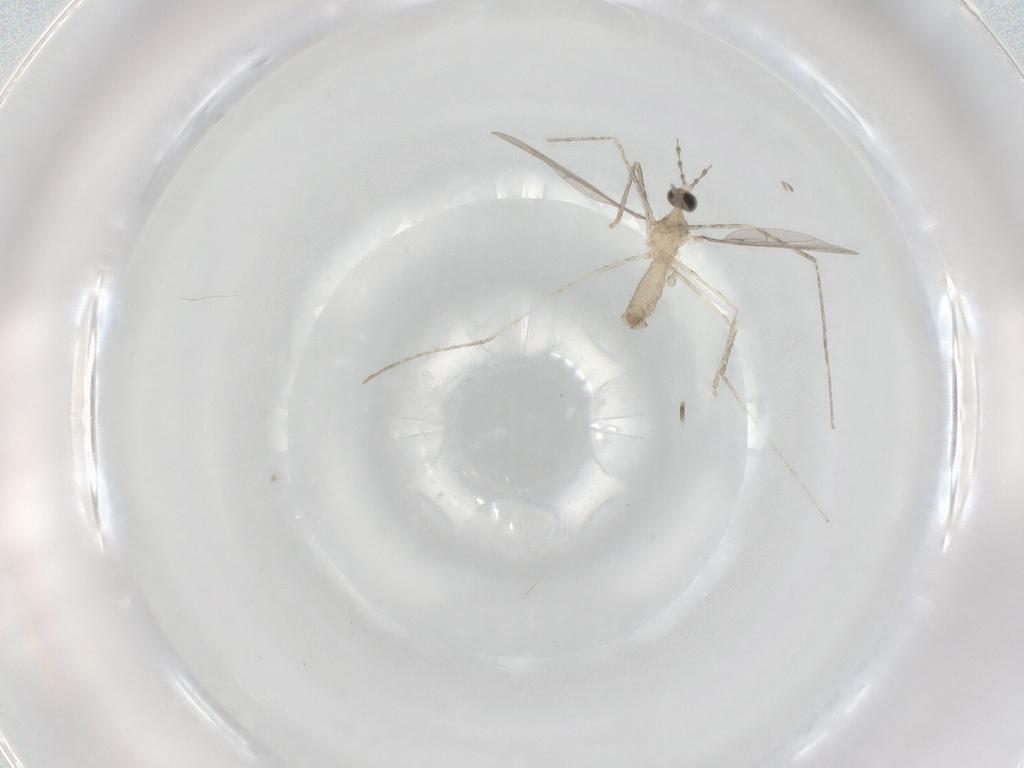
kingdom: Animalia
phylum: Arthropoda
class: Insecta
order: Diptera
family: Cecidomyiidae
